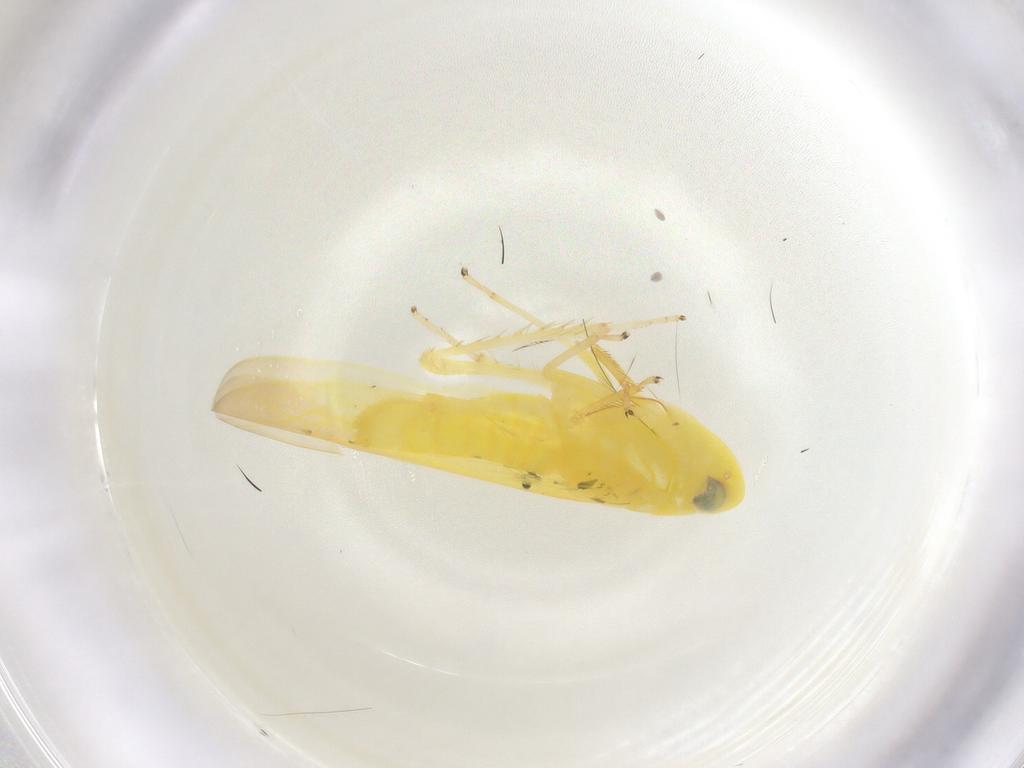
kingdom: Animalia
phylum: Arthropoda
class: Insecta
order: Hemiptera
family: Cicadellidae
